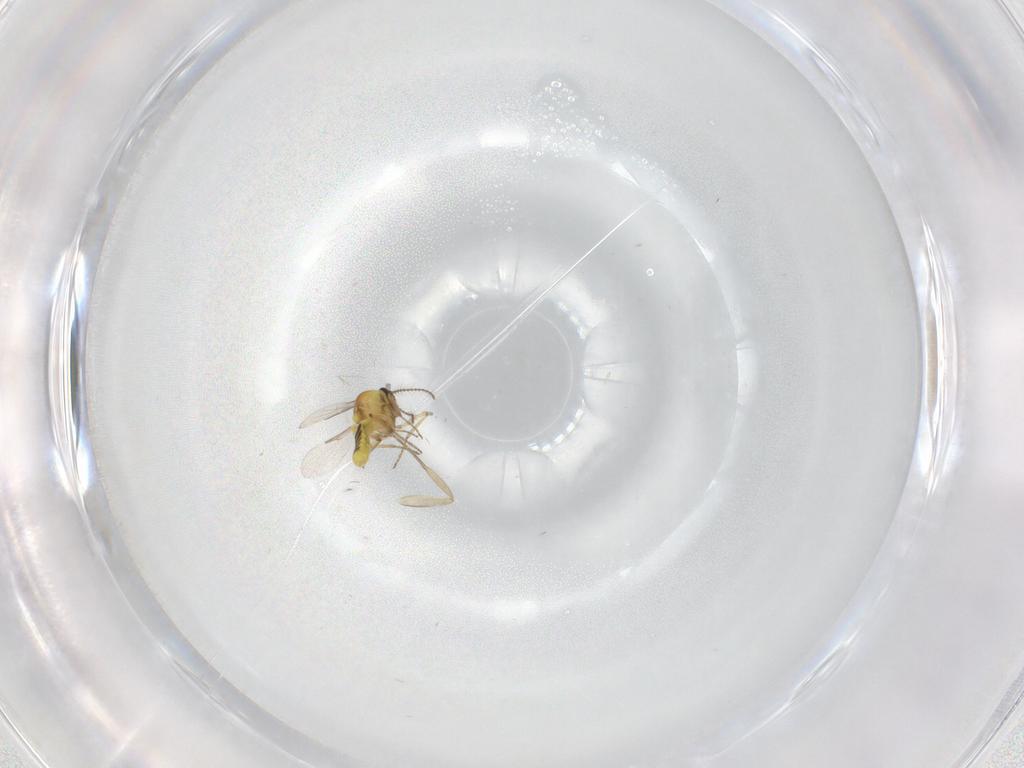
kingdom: Animalia
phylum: Arthropoda
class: Insecta
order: Diptera
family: Phoridae
